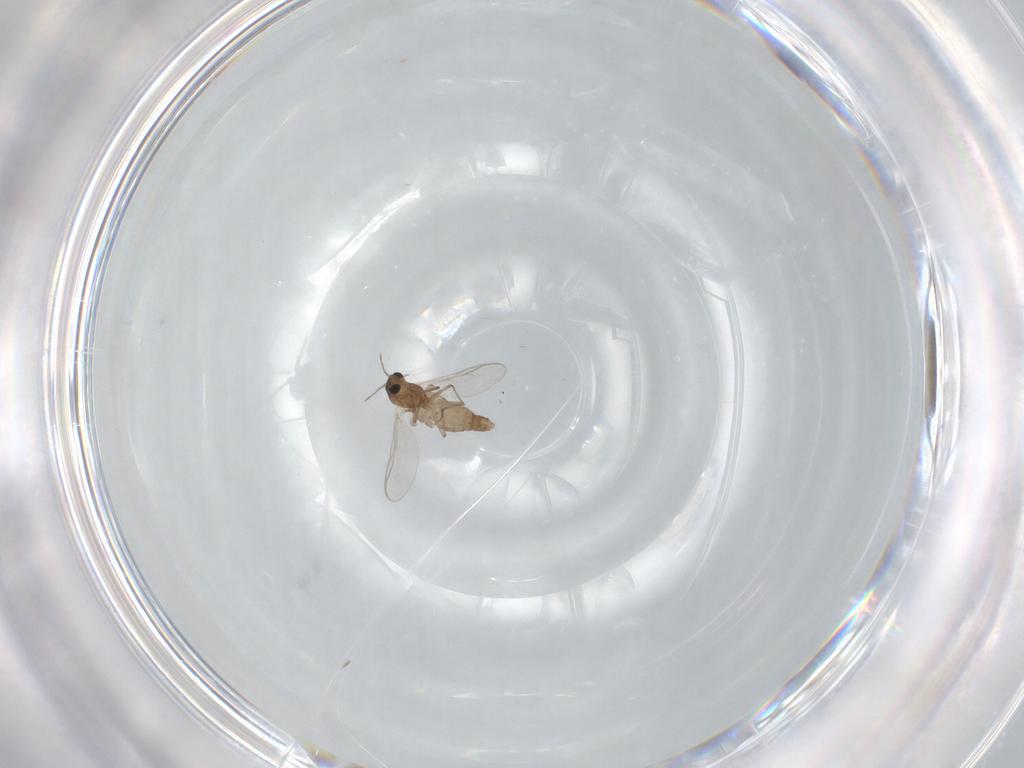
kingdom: Animalia
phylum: Arthropoda
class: Insecta
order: Diptera
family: Chironomidae
